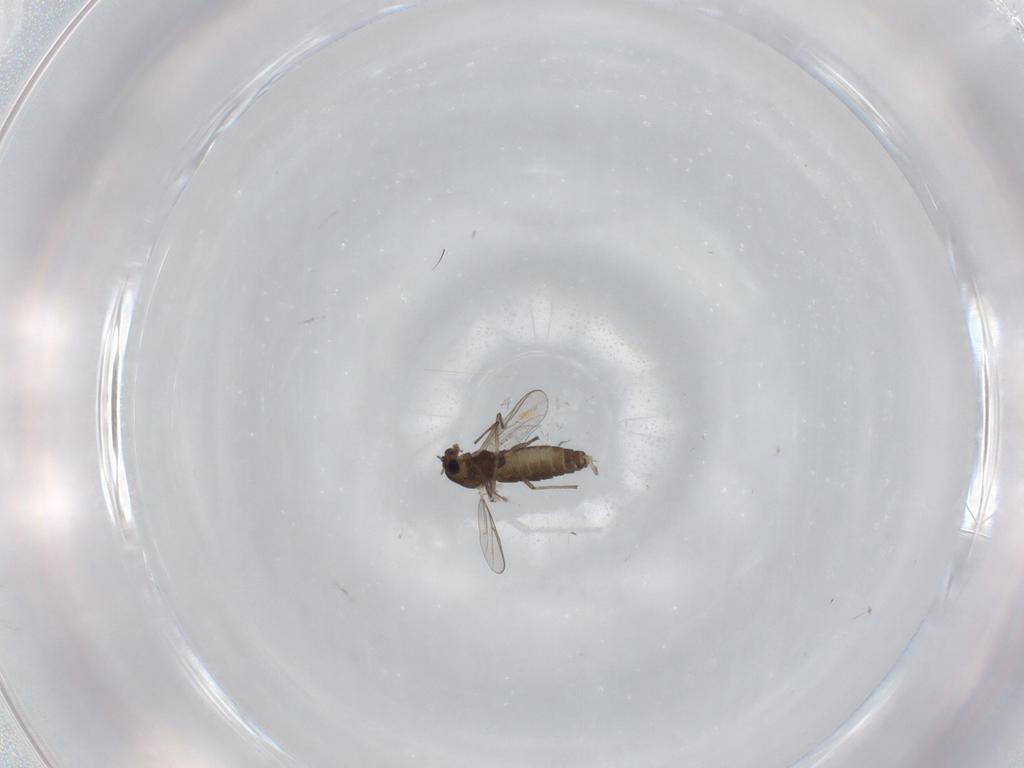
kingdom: Animalia
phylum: Arthropoda
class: Insecta
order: Diptera
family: Chironomidae
